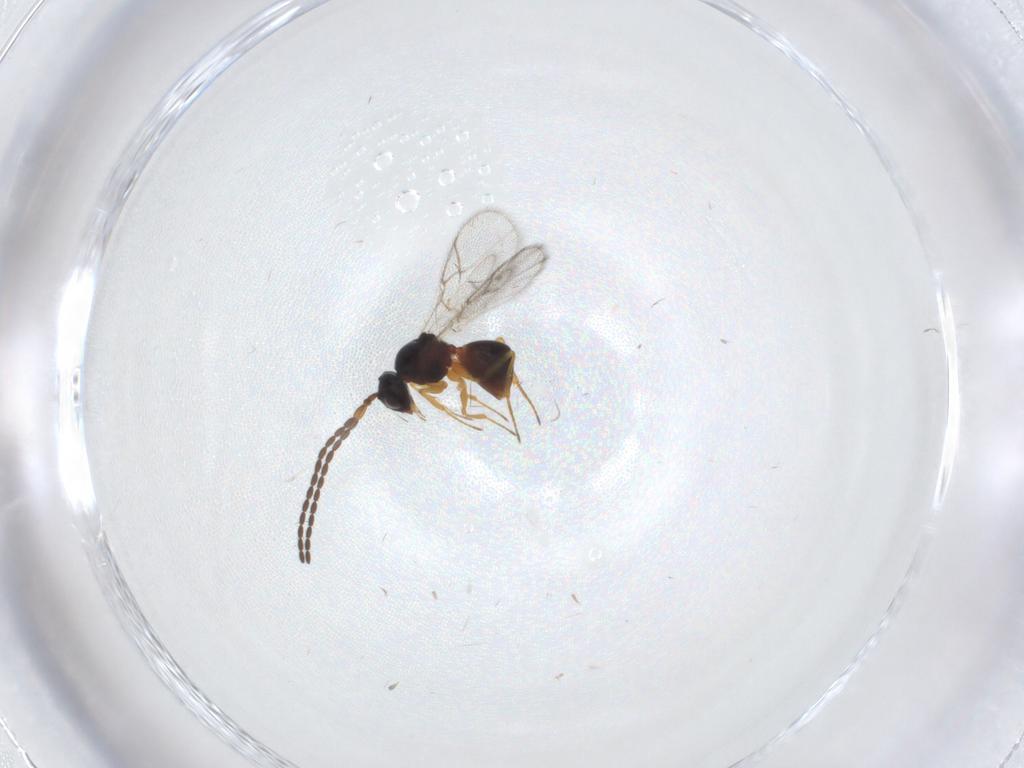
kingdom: Animalia
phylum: Arthropoda
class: Insecta
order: Hymenoptera
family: Figitidae
